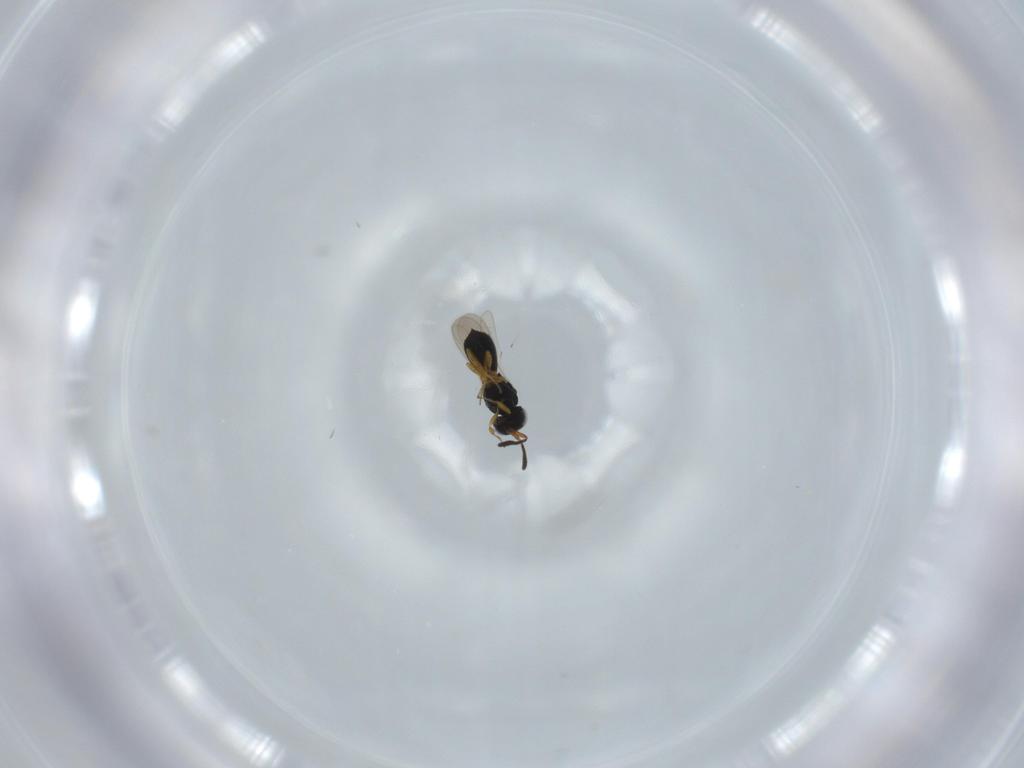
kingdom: Animalia
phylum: Arthropoda
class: Insecta
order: Hymenoptera
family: Scelionidae
